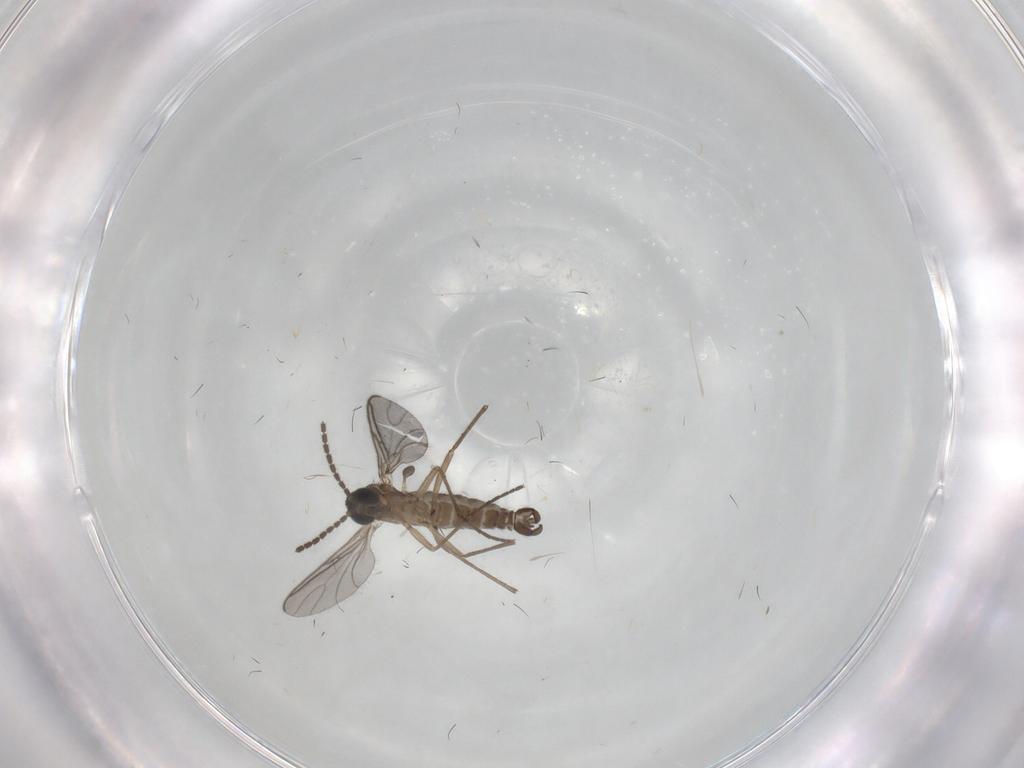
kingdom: Animalia
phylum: Arthropoda
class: Insecta
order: Diptera
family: Sciaridae
